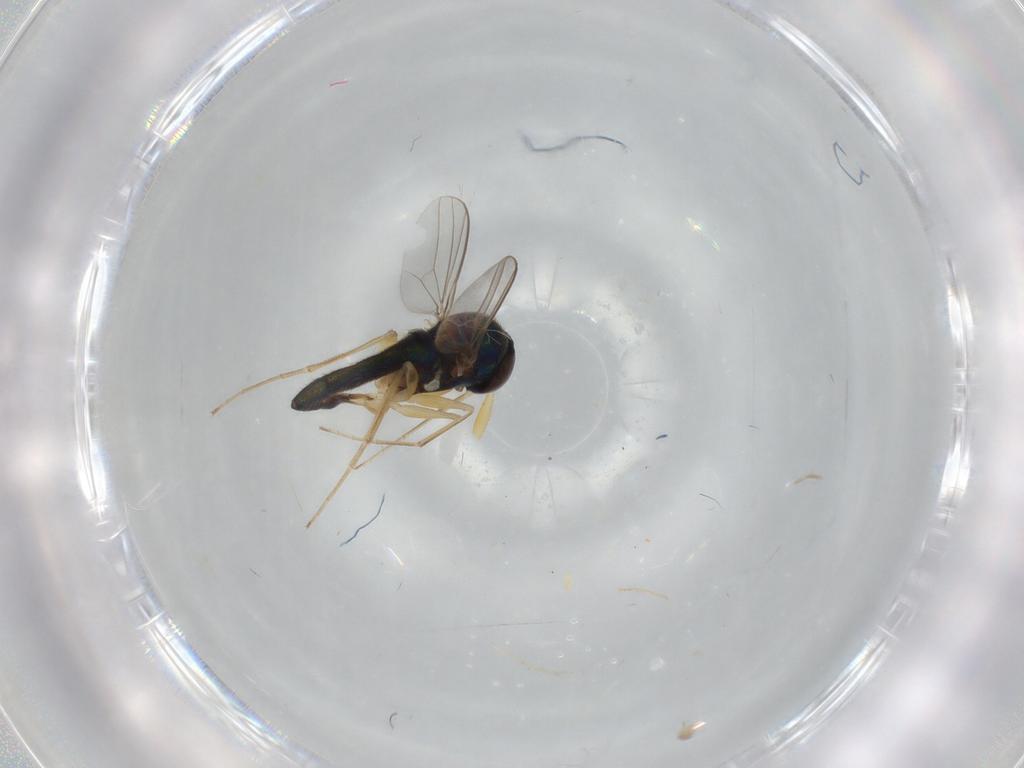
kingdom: Animalia
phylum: Arthropoda
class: Insecta
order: Diptera
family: Dolichopodidae
